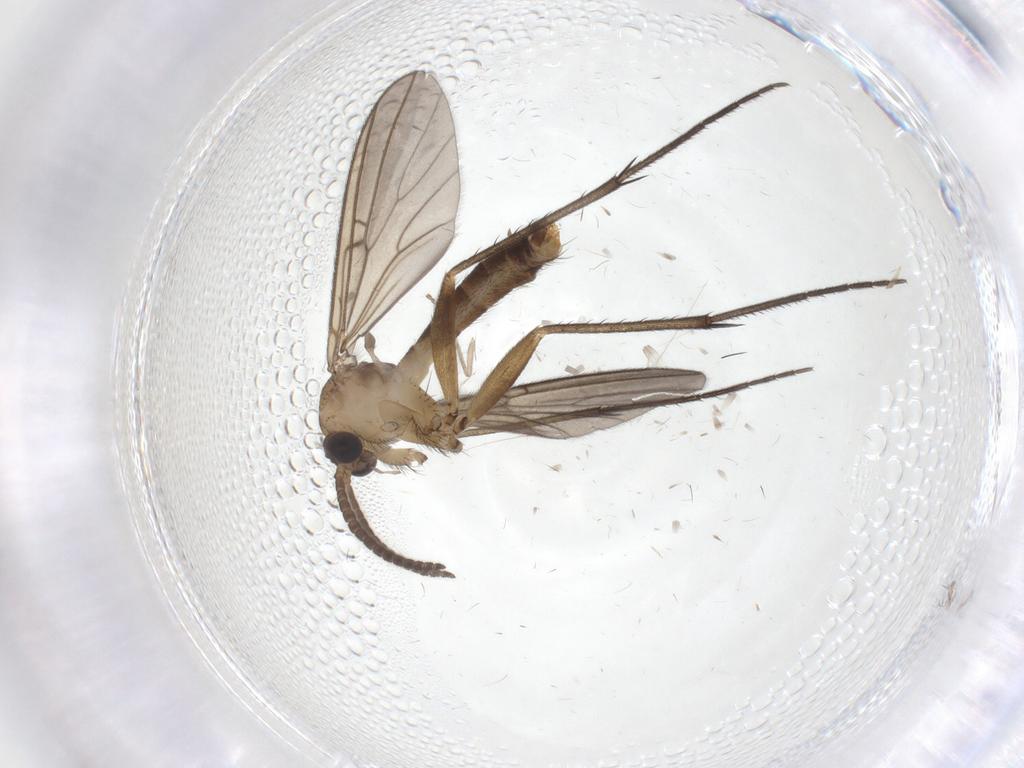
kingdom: Animalia
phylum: Arthropoda
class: Insecta
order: Diptera
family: Mycetophilidae
